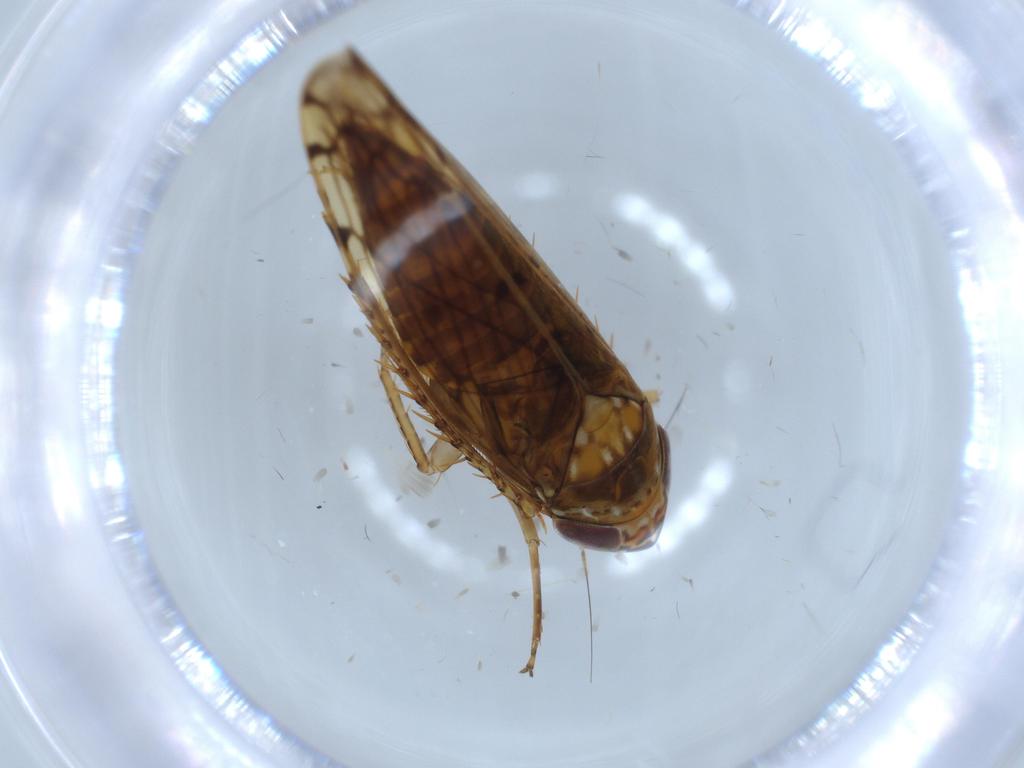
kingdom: Animalia
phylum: Arthropoda
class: Insecta
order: Hemiptera
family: Cicadellidae
